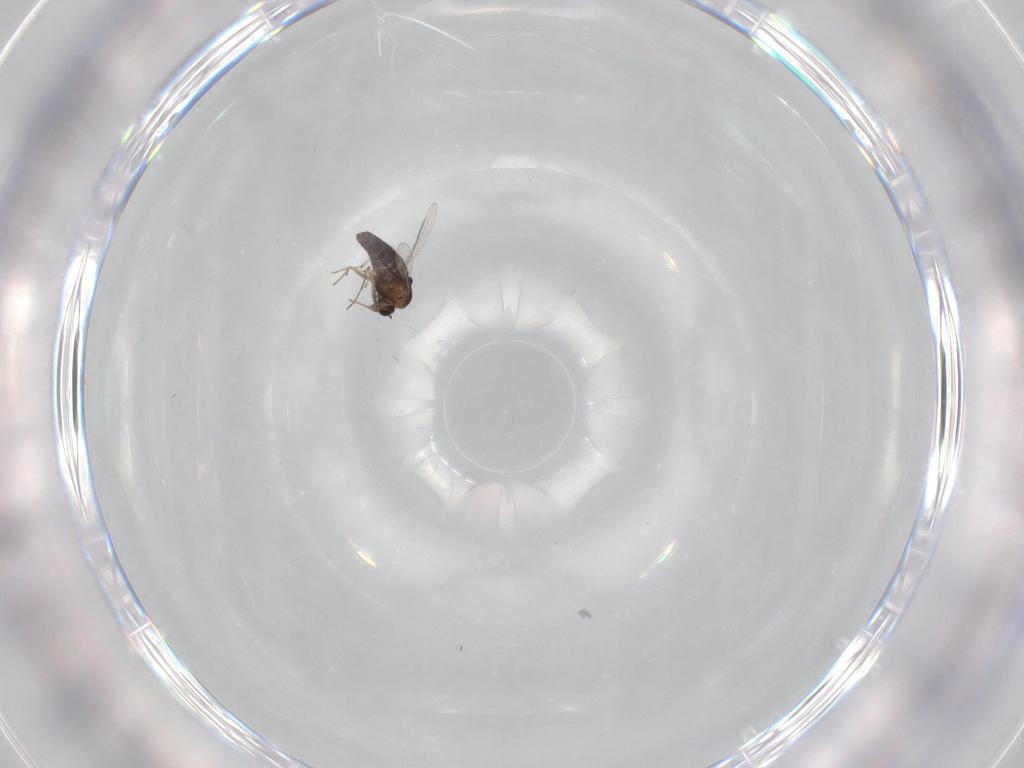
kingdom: Animalia
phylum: Arthropoda
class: Insecta
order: Diptera
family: Chironomidae
